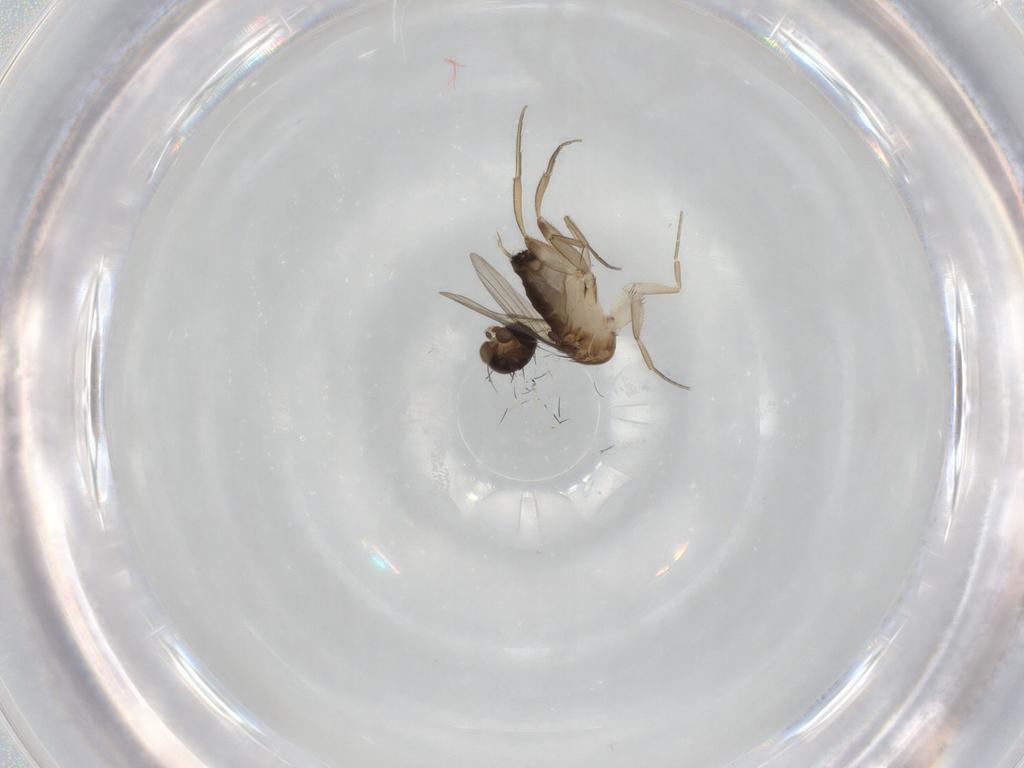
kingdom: Animalia
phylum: Arthropoda
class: Insecta
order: Diptera
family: Phoridae
